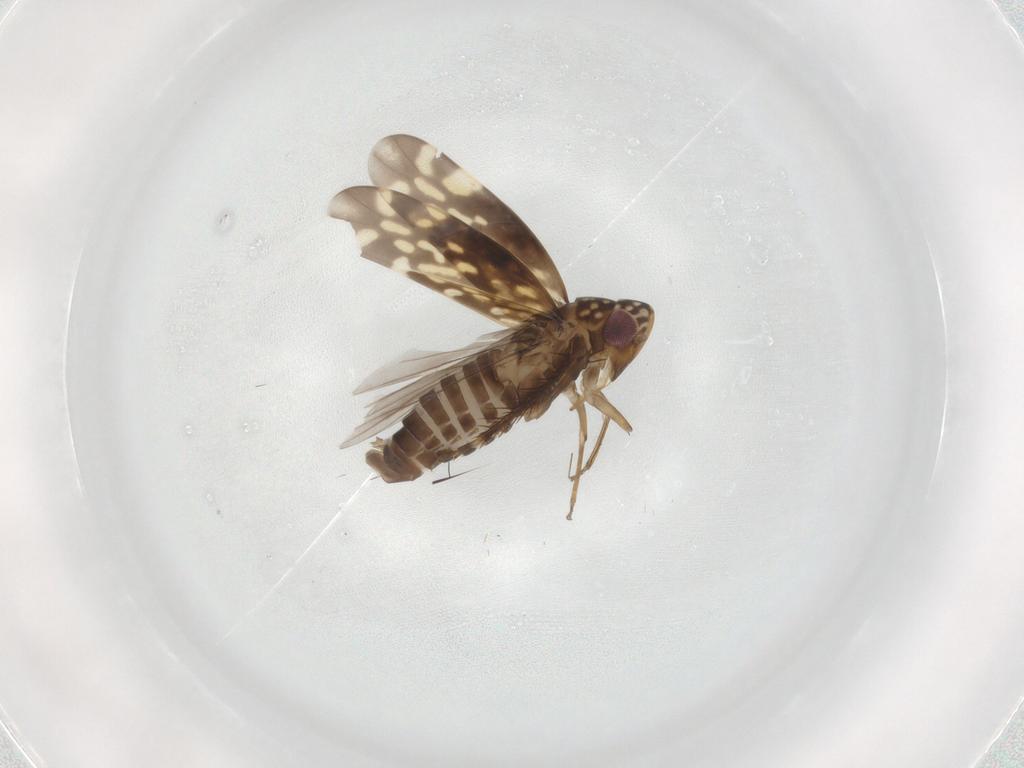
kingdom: Animalia
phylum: Arthropoda
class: Insecta
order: Hemiptera
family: Cicadellidae
